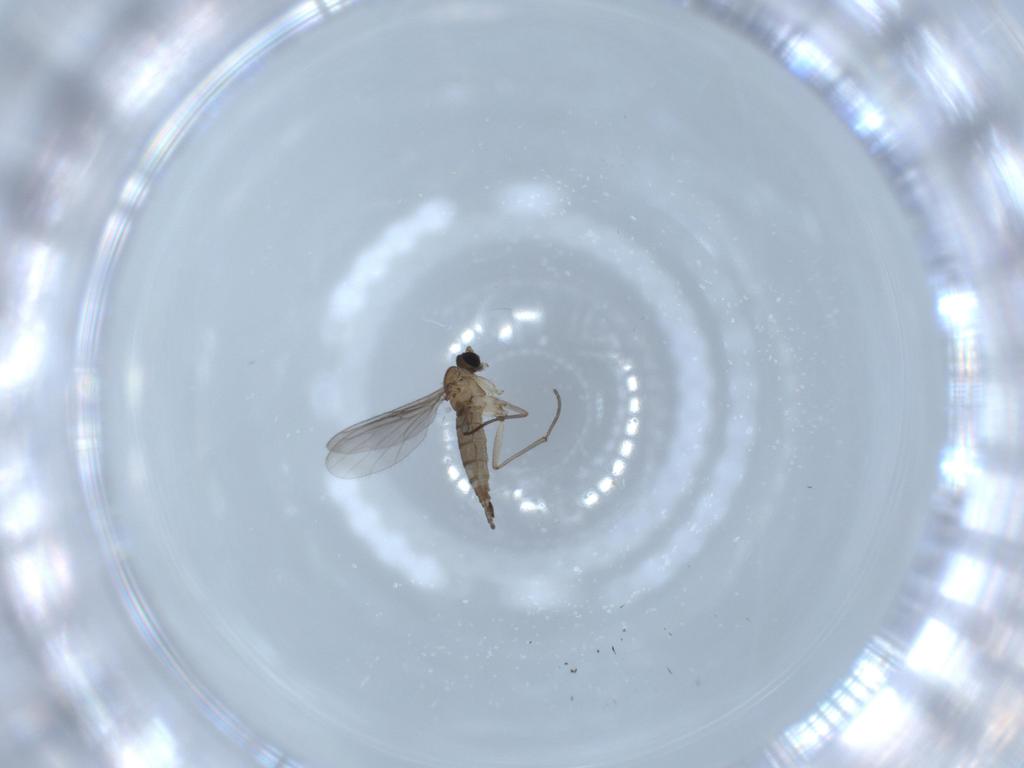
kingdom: Animalia
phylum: Arthropoda
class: Insecta
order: Diptera
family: Sciaridae
